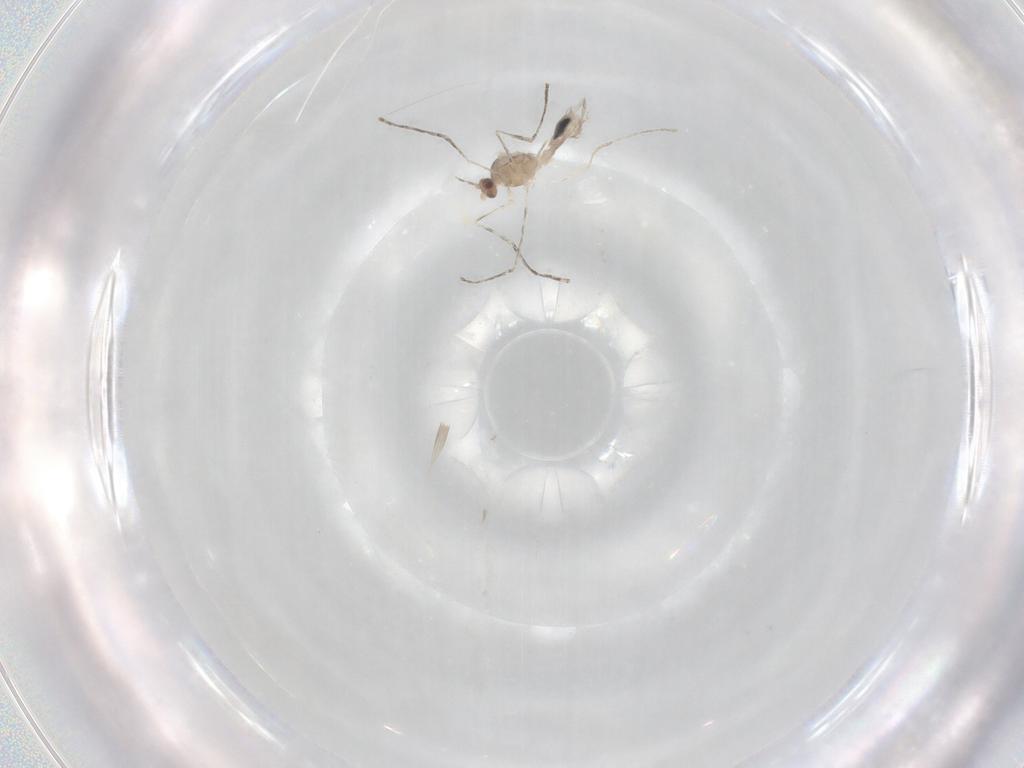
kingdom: Animalia
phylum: Arthropoda
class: Insecta
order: Diptera
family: Cecidomyiidae
